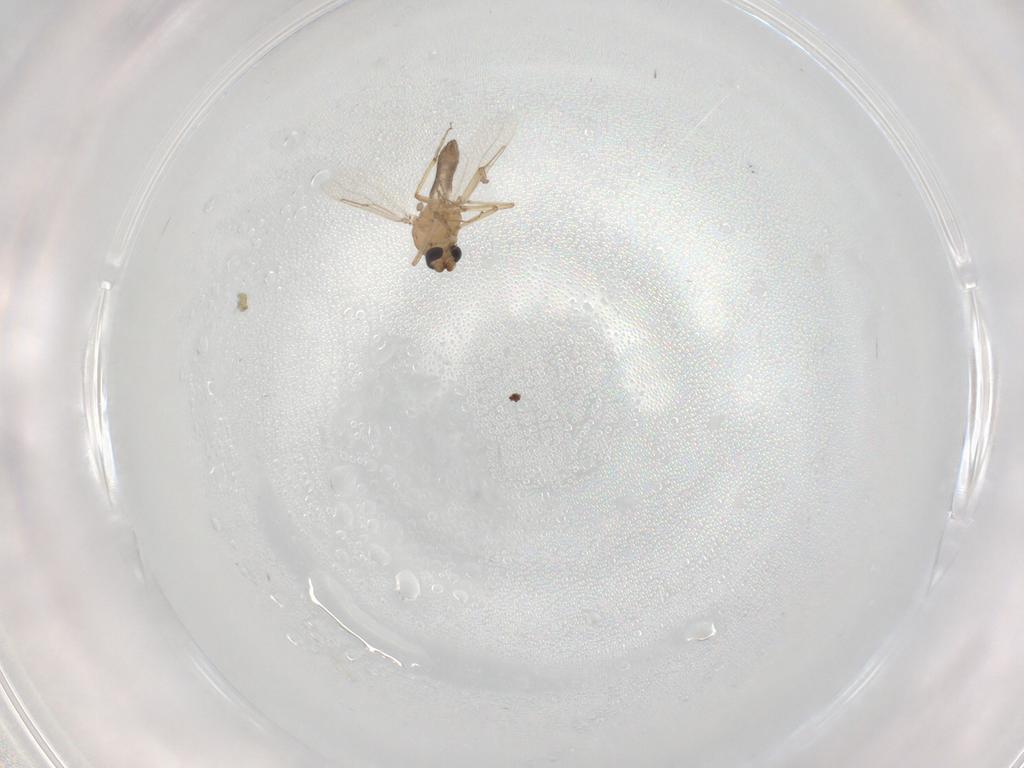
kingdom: Animalia
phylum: Arthropoda
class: Insecta
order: Diptera
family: Ceratopogonidae
